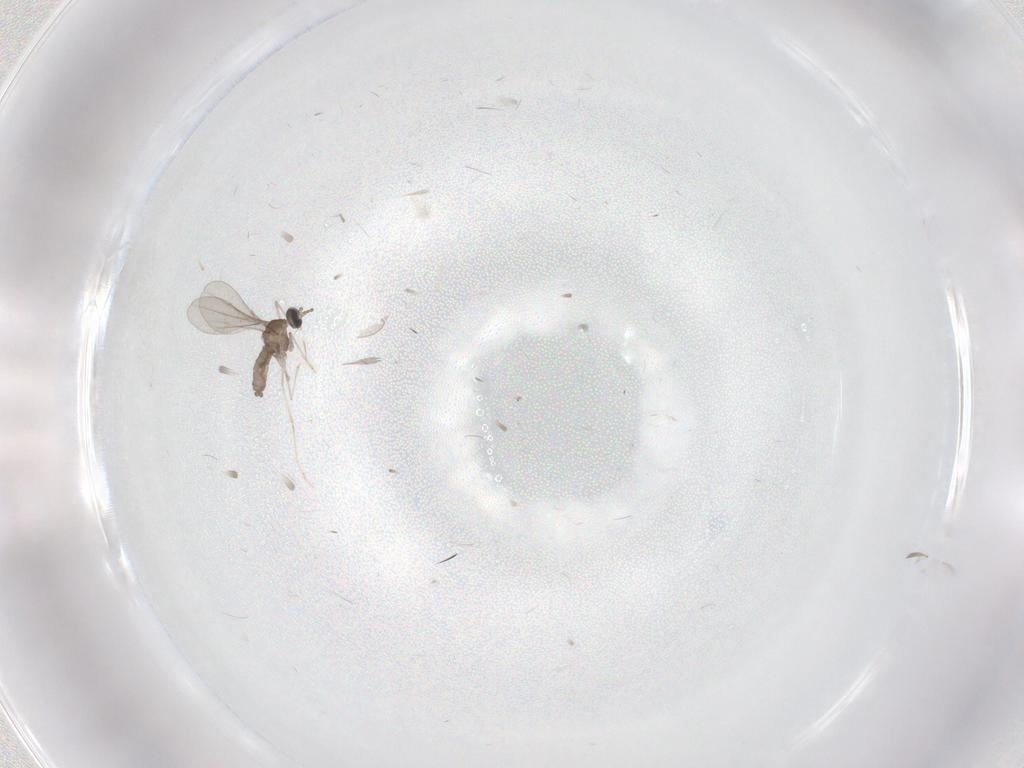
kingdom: Animalia
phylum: Arthropoda
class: Insecta
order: Diptera
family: Cecidomyiidae
